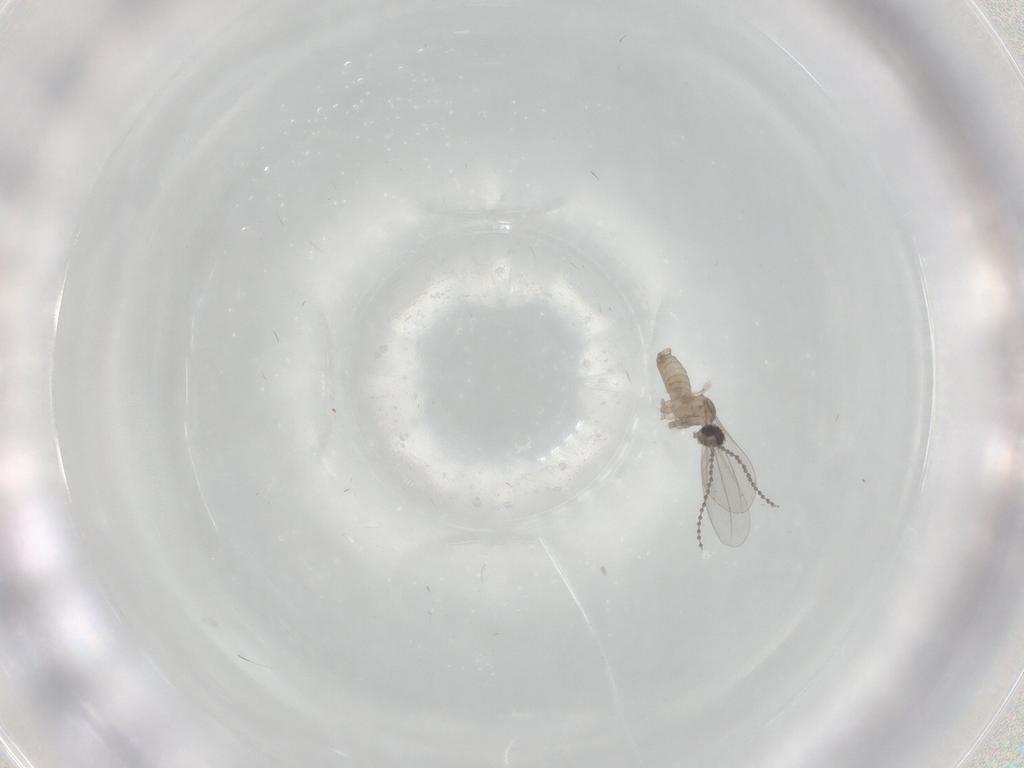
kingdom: Animalia
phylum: Arthropoda
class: Insecta
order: Diptera
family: Cecidomyiidae
